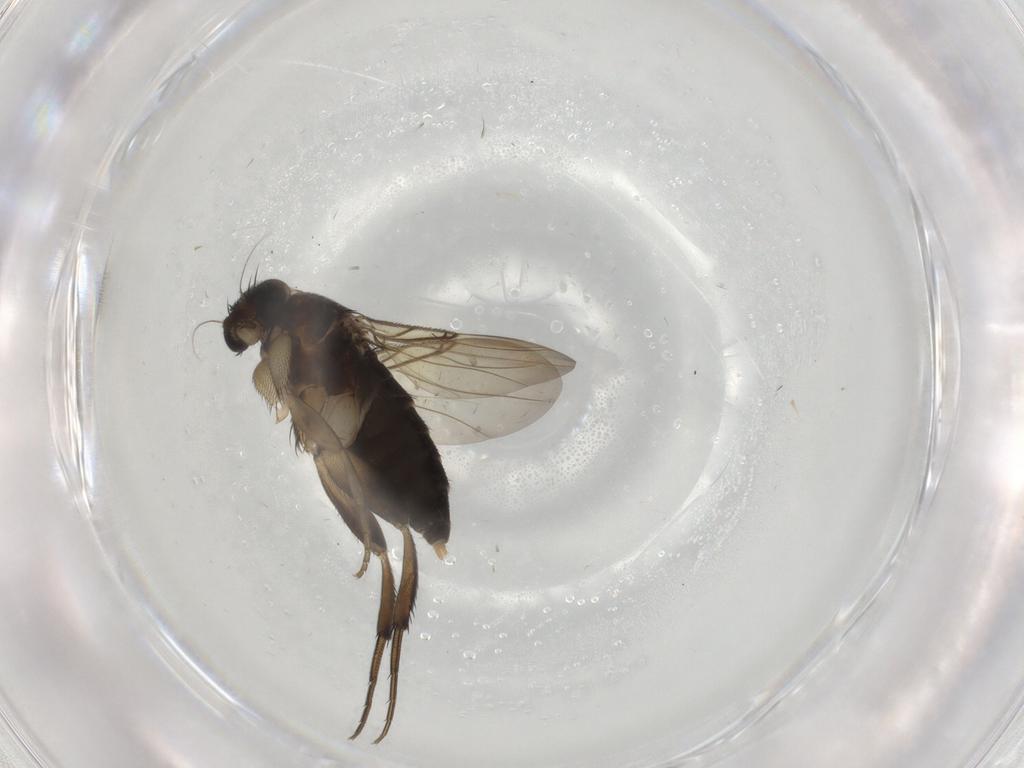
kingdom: Animalia
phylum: Arthropoda
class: Insecta
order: Diptera
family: Phoridae
